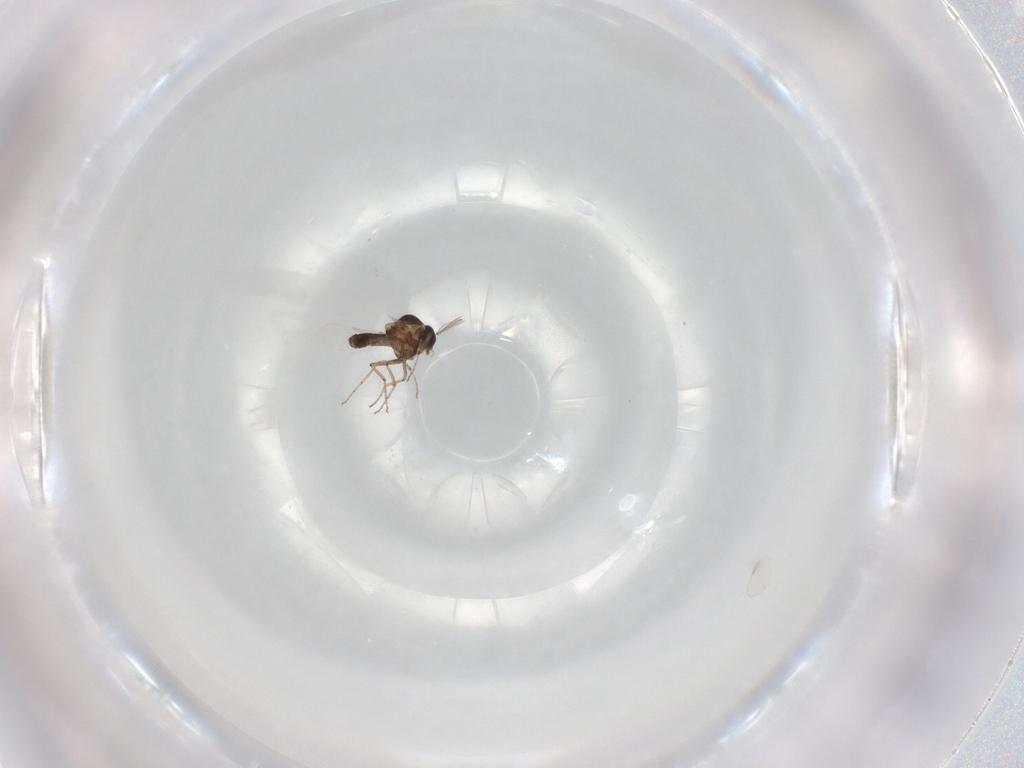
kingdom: Animalia
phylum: Arthropoda
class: Insecta
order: Diptera
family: Ceratopogonidae
